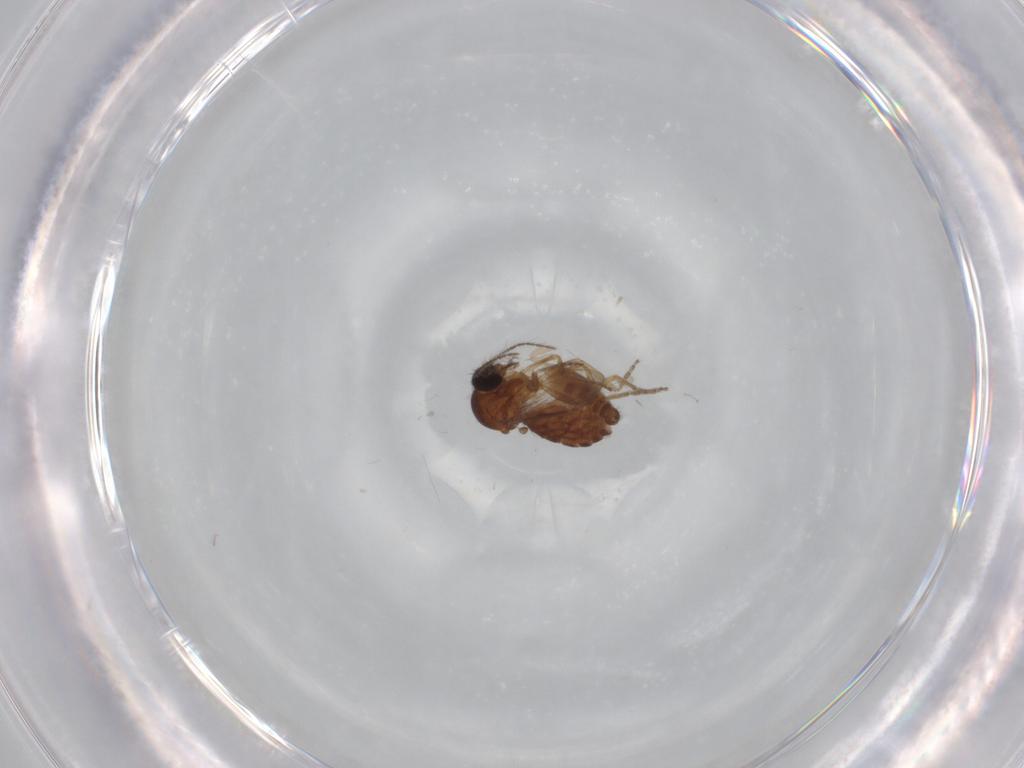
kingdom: Animalia
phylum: Arthropoda
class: Insecta
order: Diptera
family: Ceratopogonidae
